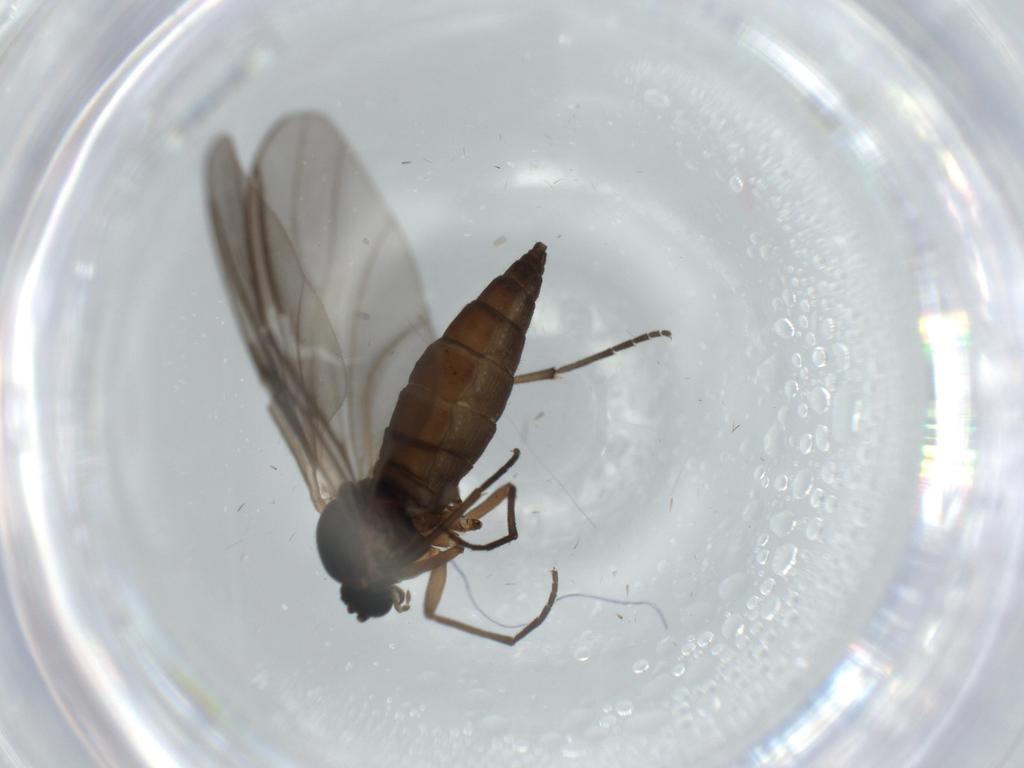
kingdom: Animalia
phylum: Arthropoda
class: Insecta
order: Diptera
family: Sciaridae
